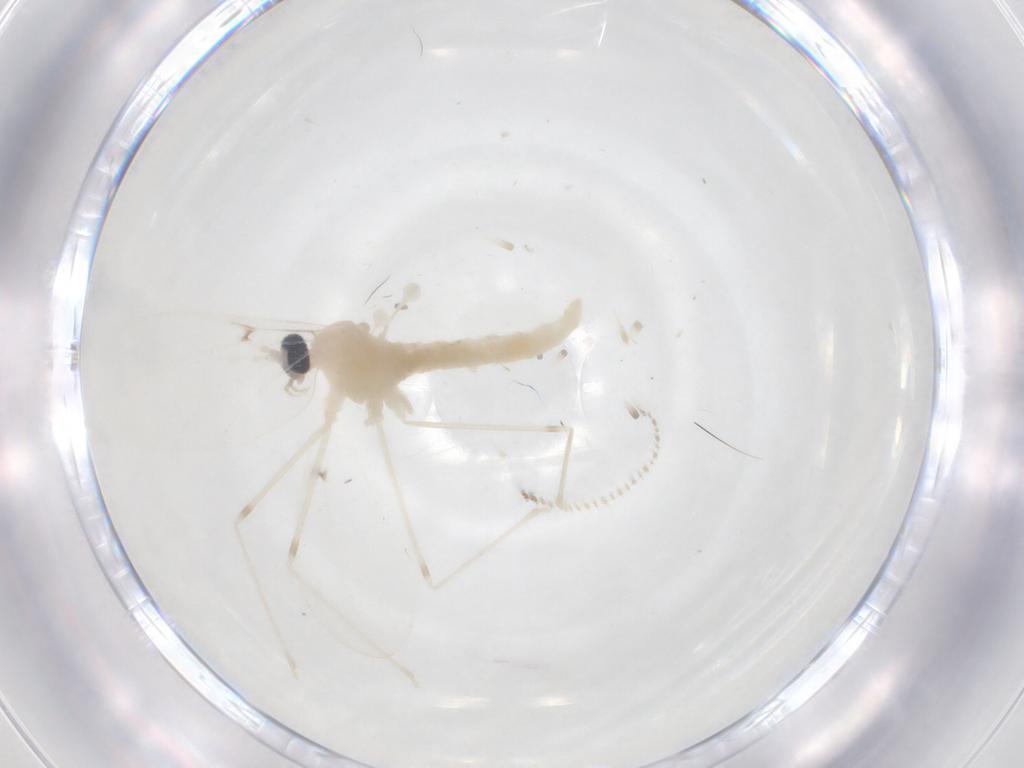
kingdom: Animalia
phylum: Arthropoda
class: Insecta
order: Diptera
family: Cecidomyiidae
